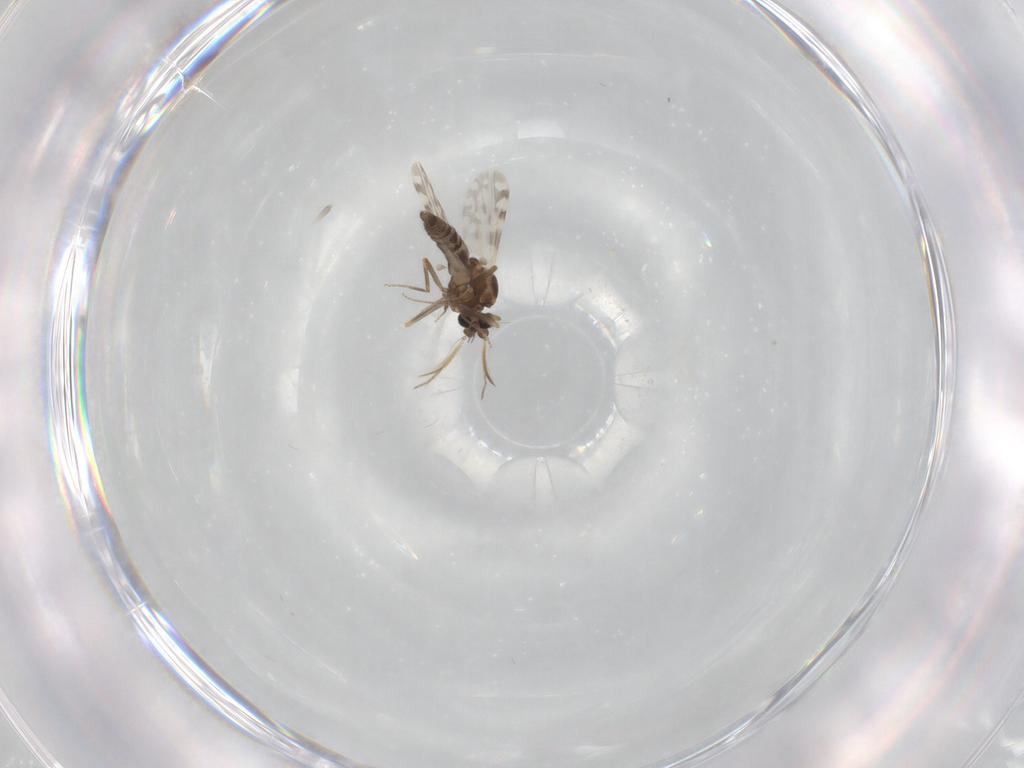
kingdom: Animalia
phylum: Arthropoda
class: Insecta
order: Diptera
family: Ceratopogonidae
